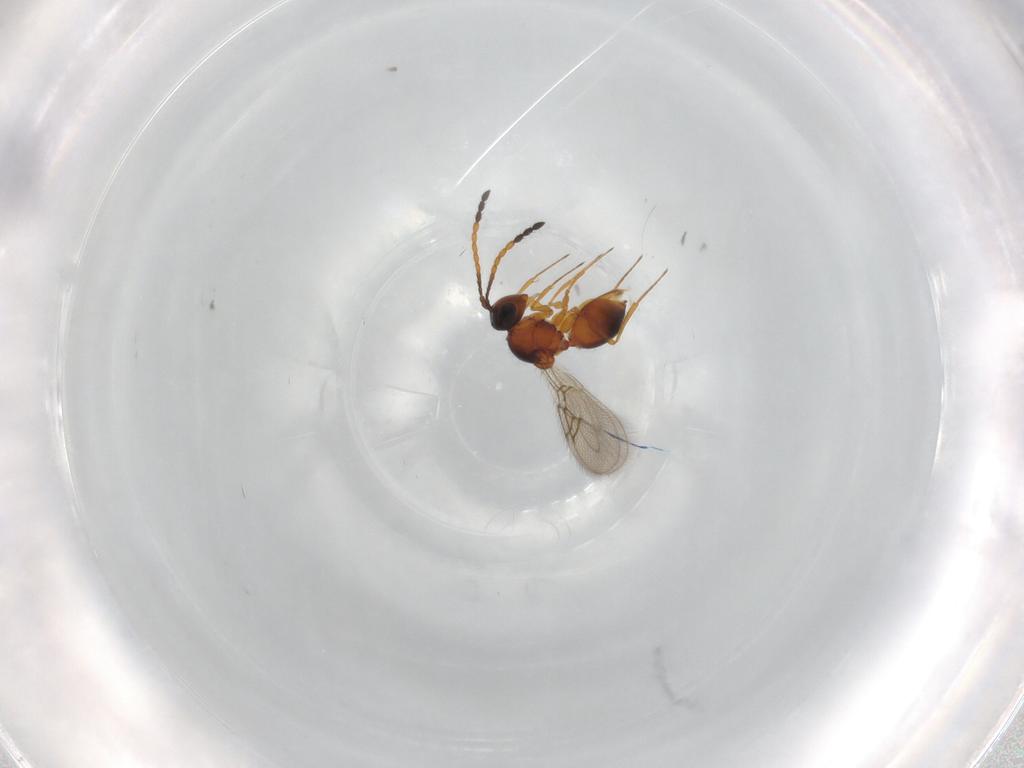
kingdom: Animalia
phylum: Arthropoda
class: Insecta
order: Hymenoptera
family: Figitidae
